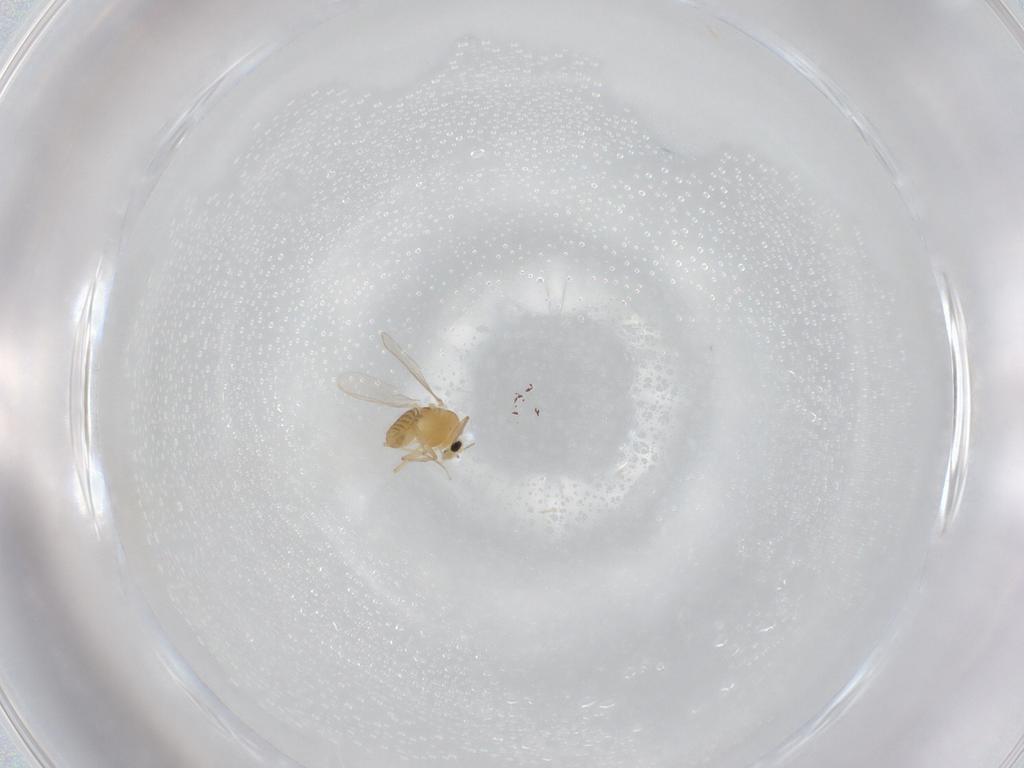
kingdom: Animalia
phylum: Arthropoda
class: Insecta
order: Diptera
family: Chironomidae
